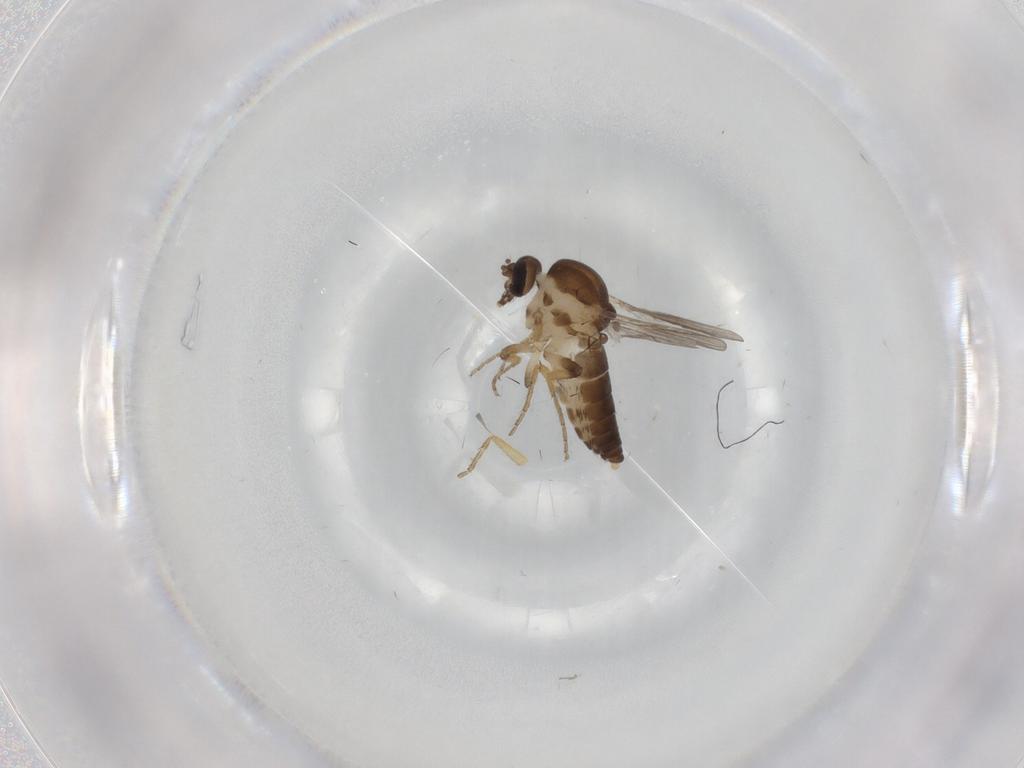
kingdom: Animalia
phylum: Arthropoda
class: Insecta
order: Diptera
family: Ceratopogonidae
